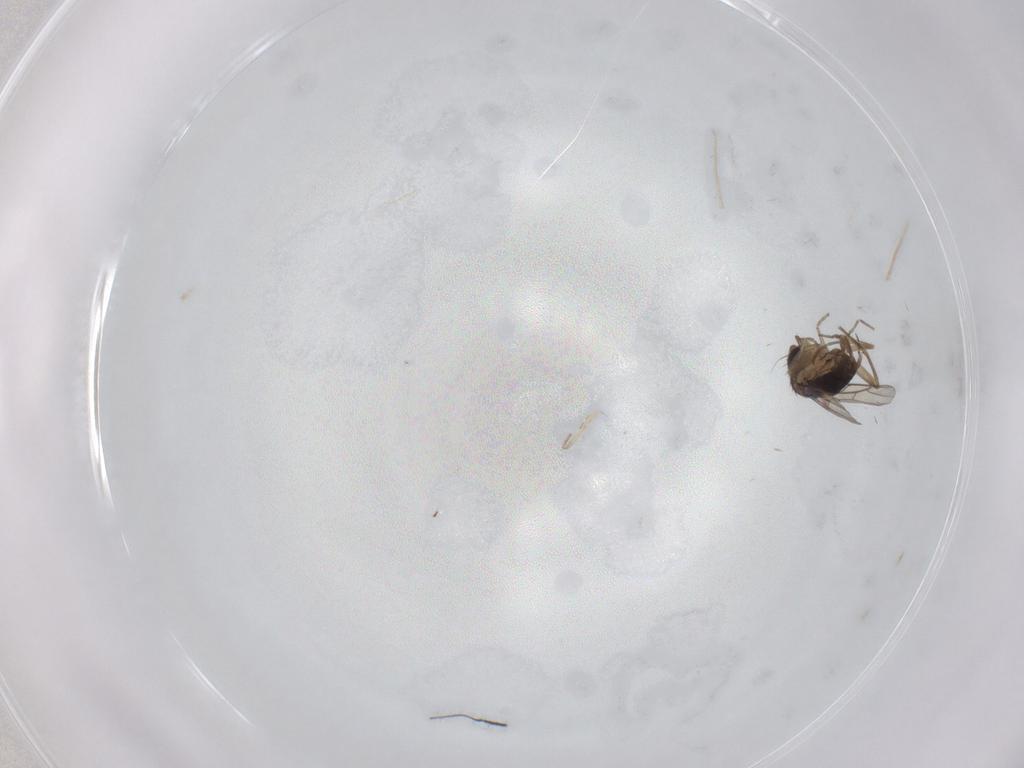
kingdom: Animalia
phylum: Arthropoda
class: Insecta
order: Diptera
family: Phoridae
